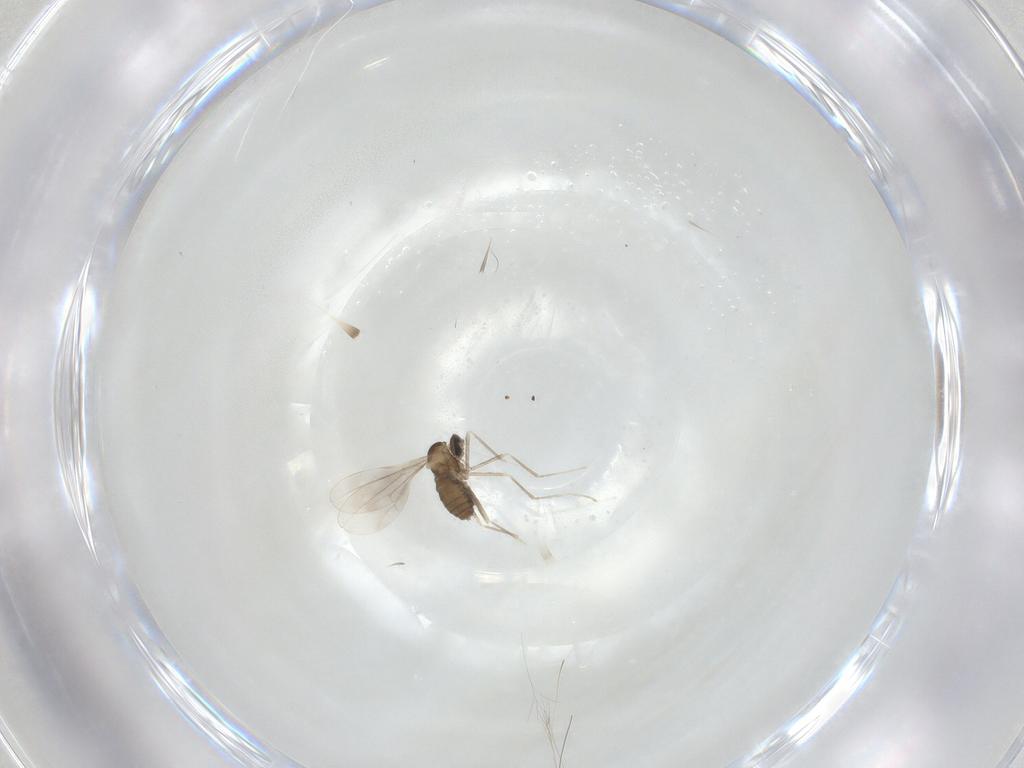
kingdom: Animalia
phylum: Arthropoda
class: Insecta
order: Diptera
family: Cecidomyiidae
